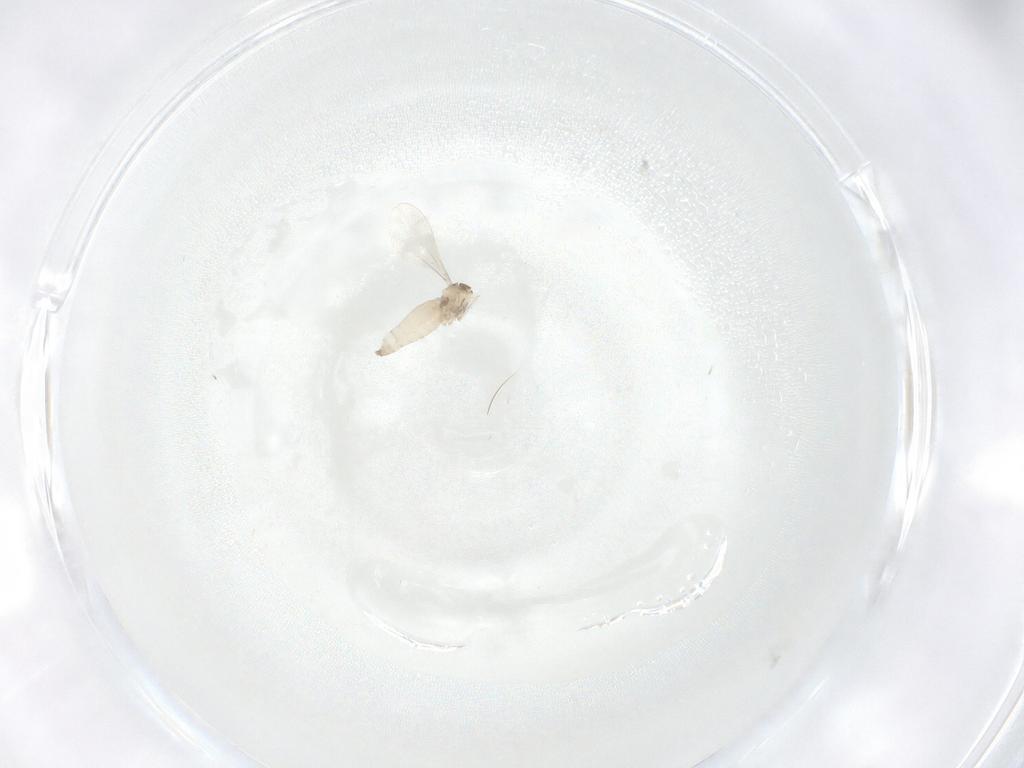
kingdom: Animalia
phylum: Arthropoda
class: Insecta
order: Diptera
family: Cecidomyiidae
